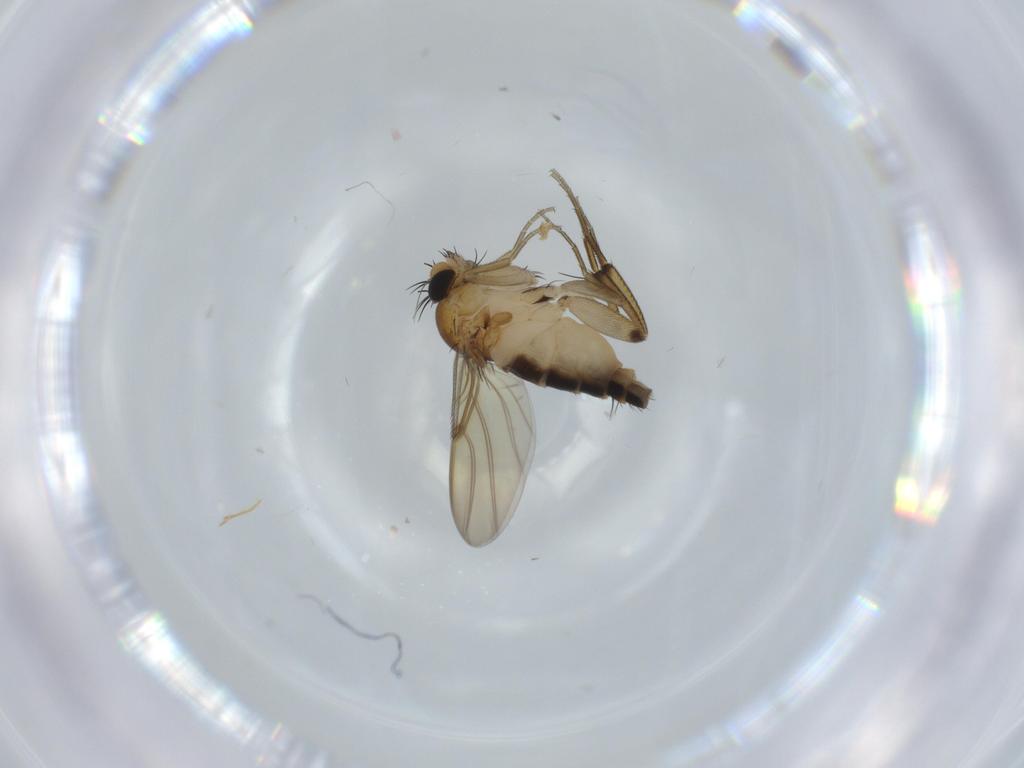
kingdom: Animalia
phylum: Arthropoda
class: Insecta
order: Diptera
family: Phoridae
